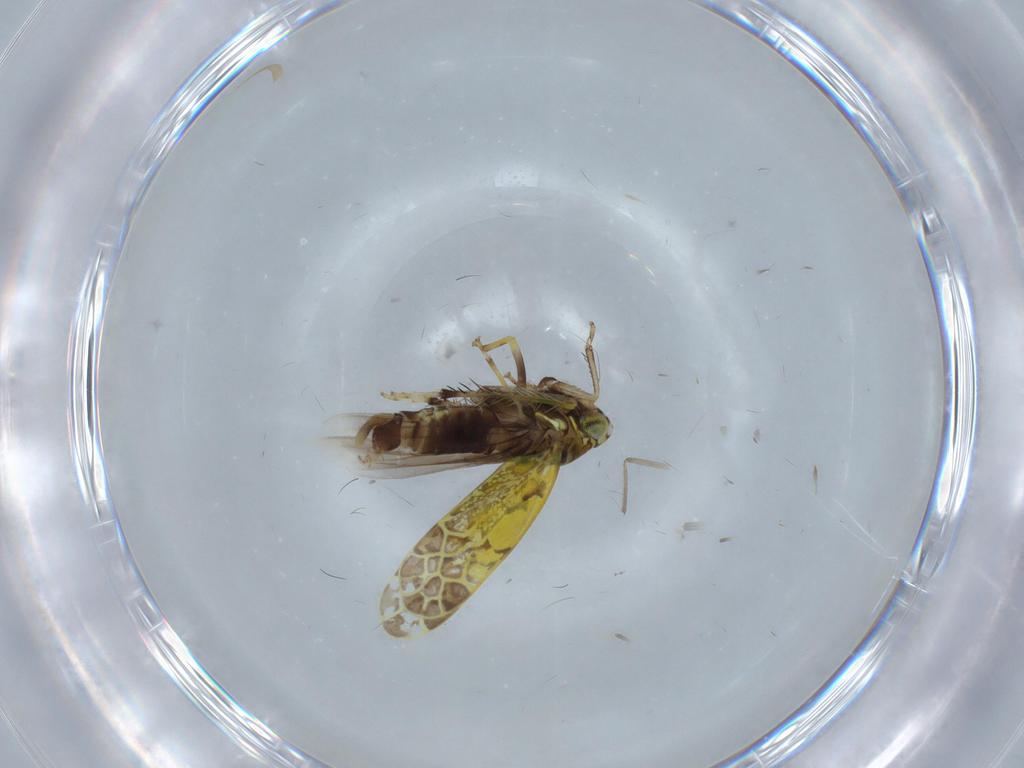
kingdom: Animalia
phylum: Arthropoda
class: Insecta
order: Hemiptera
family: Cicadellidae
